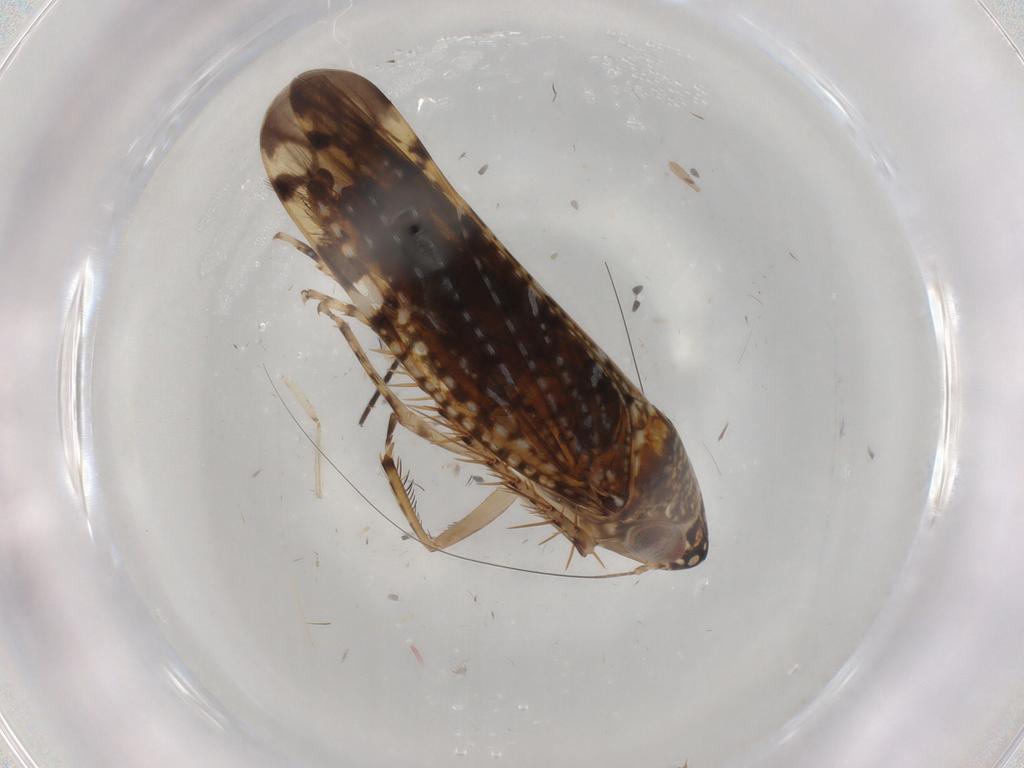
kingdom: Animalia
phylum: Arthropoda
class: Insecta
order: Hemiptera
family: Cicadellidae
